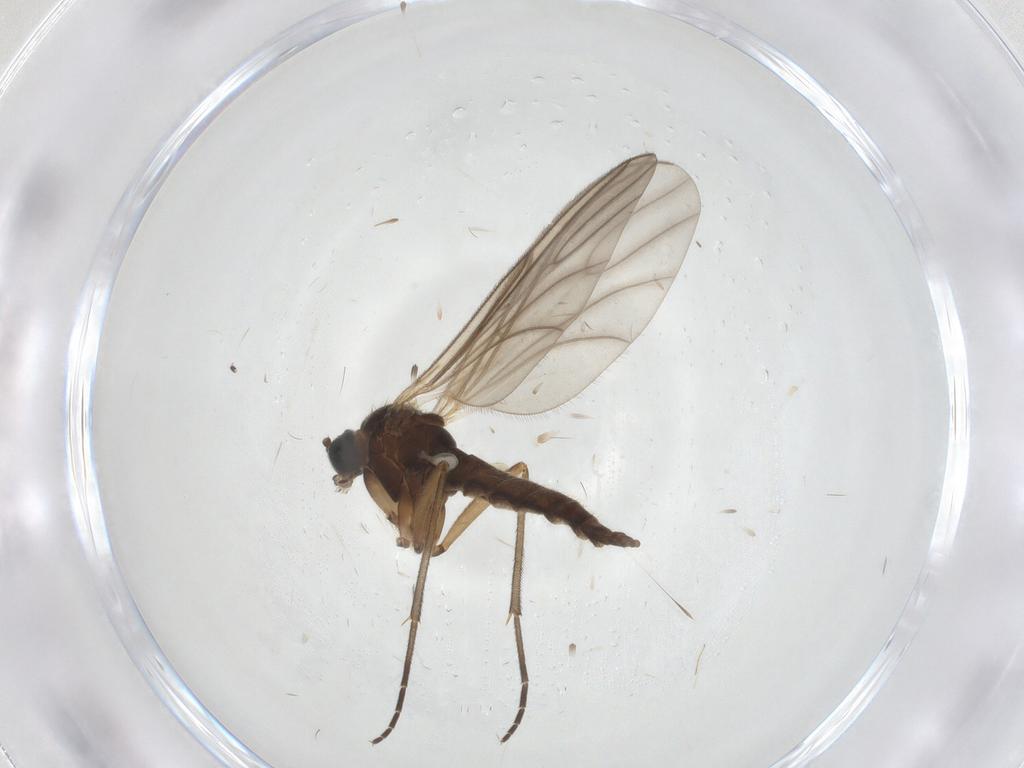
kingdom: Animalia
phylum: Arthropoda
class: Insecta
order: Diptera
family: Sciaridae
